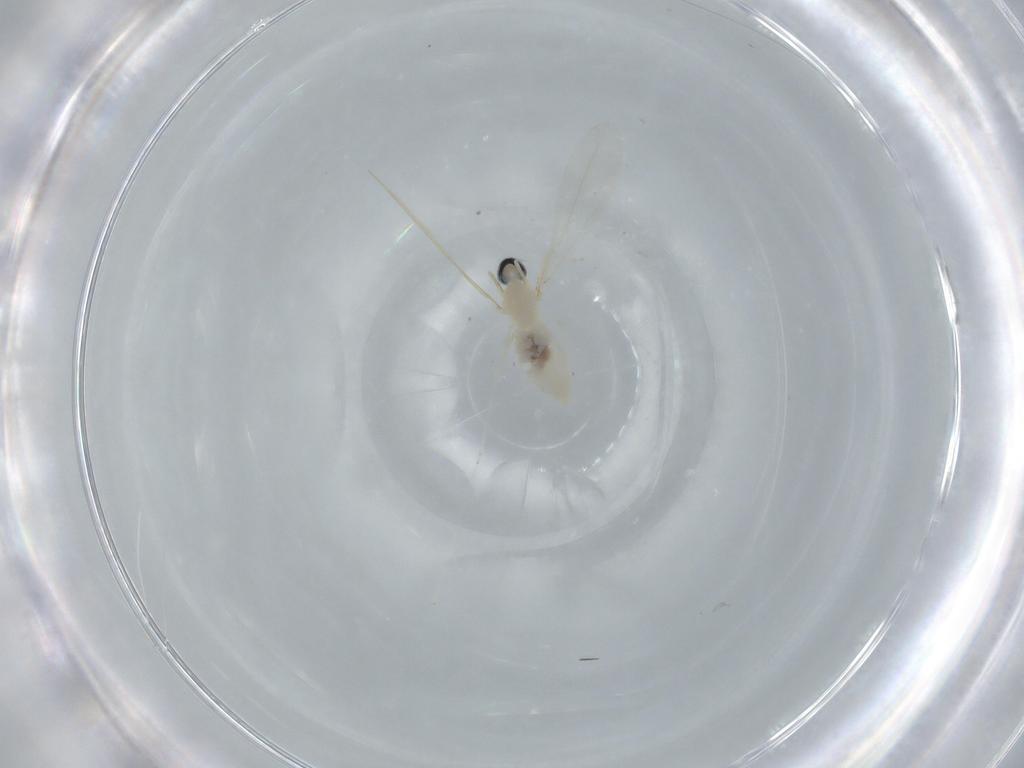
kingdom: Animalia
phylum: Arthropoda
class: Insecta
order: Diptera
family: Cecidomyiidae
